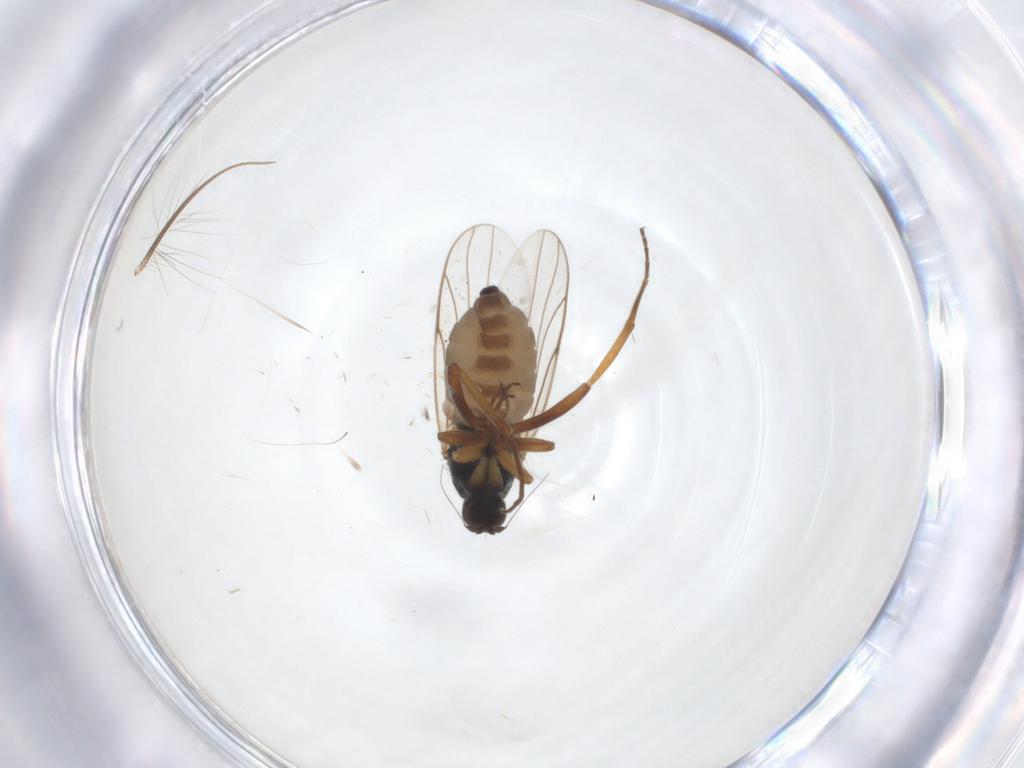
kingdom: Animalia
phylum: Arthropoda
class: Insecta
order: Diptera
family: Hybotidae
